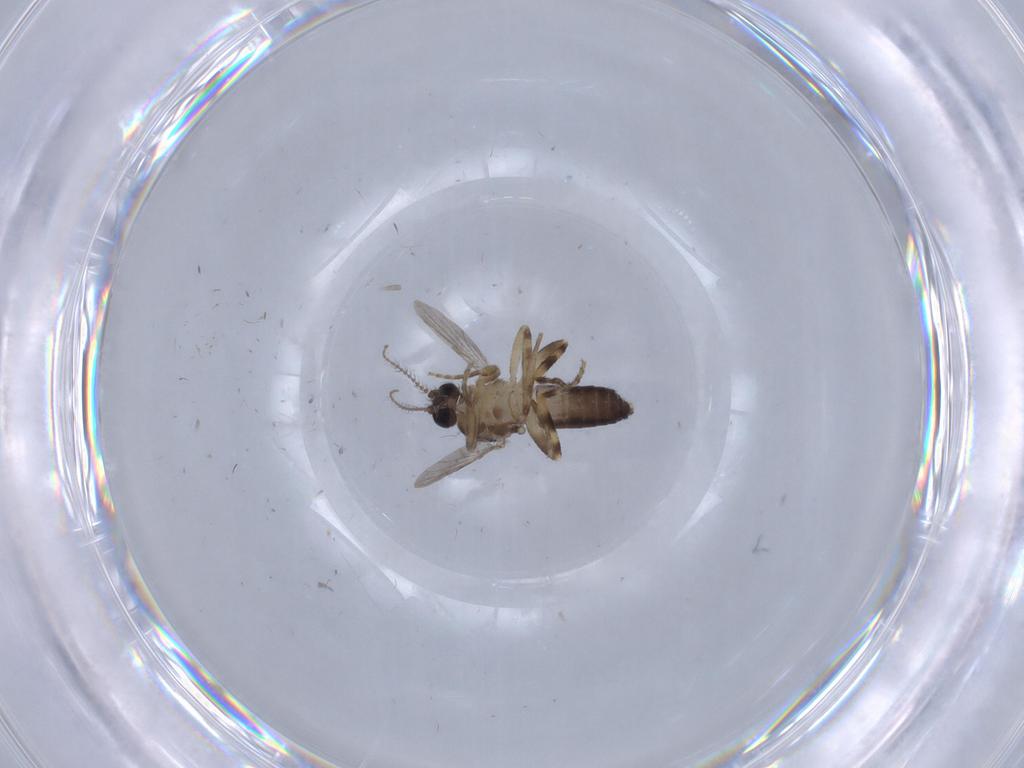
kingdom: Animalia
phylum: Arthropoda
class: Insecta
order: Diptera
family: Ceratopogonidae
